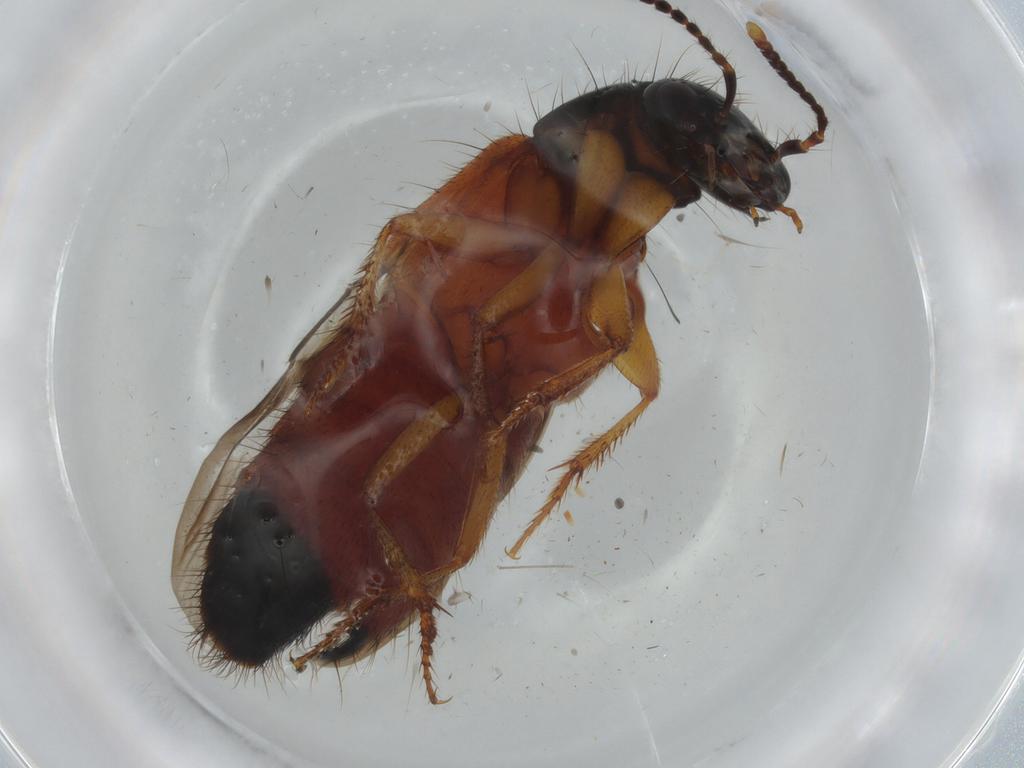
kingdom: Animalia
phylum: Arthropoda
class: Insecta
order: Coleoptera
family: Staphylinidae
